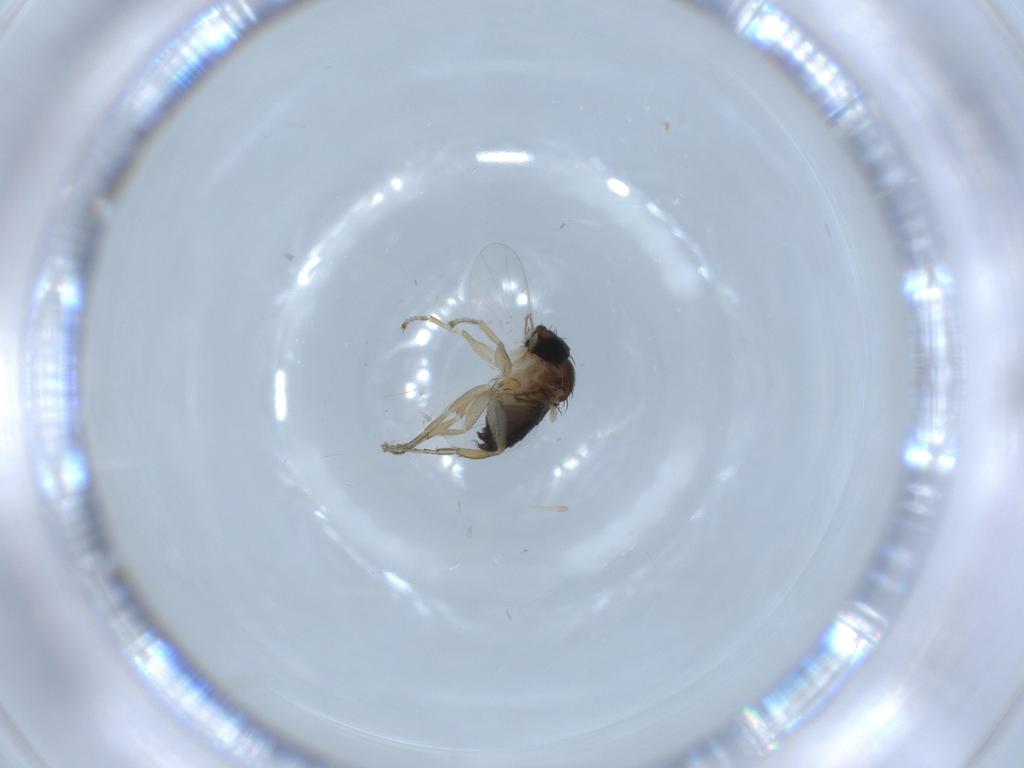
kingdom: Animalia
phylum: Arthropoda
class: Insecta
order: Diptera
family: Phoridae
